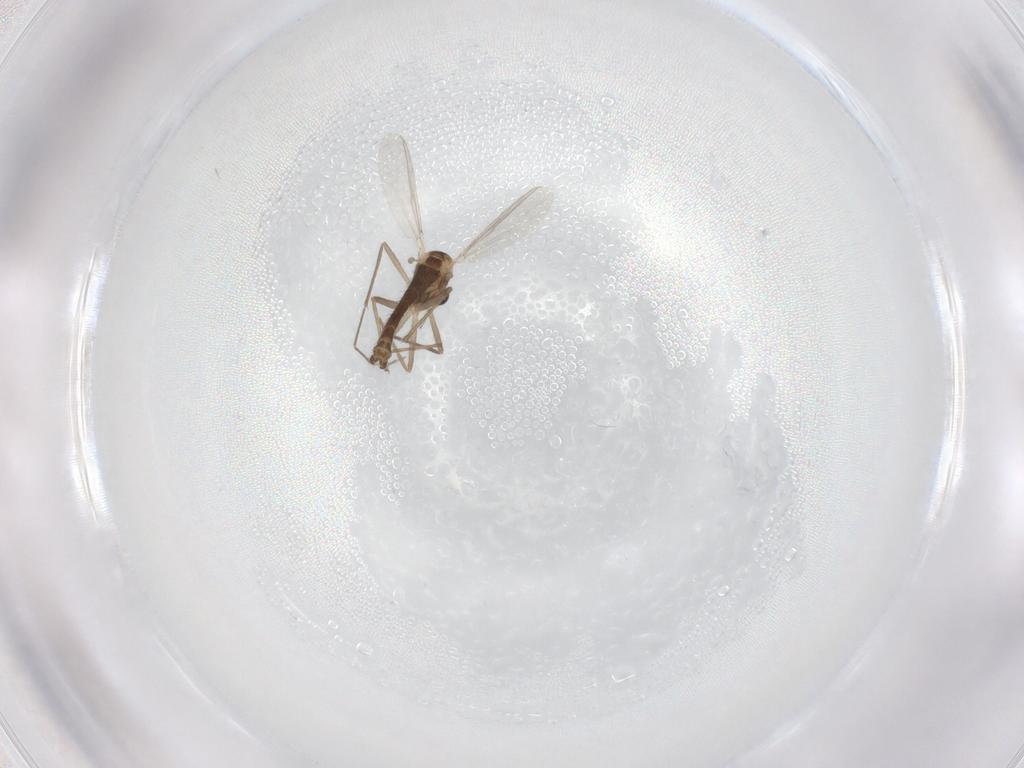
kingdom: Animalia
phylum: Arthropoda
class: Insecta
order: Diptera
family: Chironomidae
